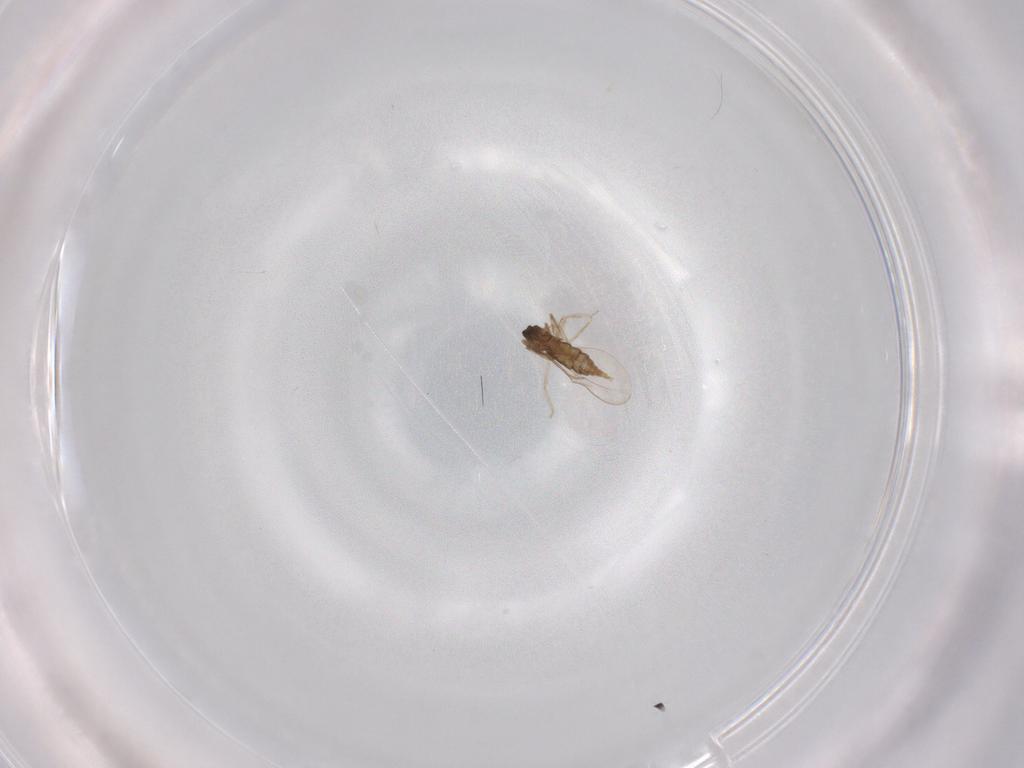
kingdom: Animalia
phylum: Arthropoda
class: Insecta
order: Diptera
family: Cecidomyiidae
